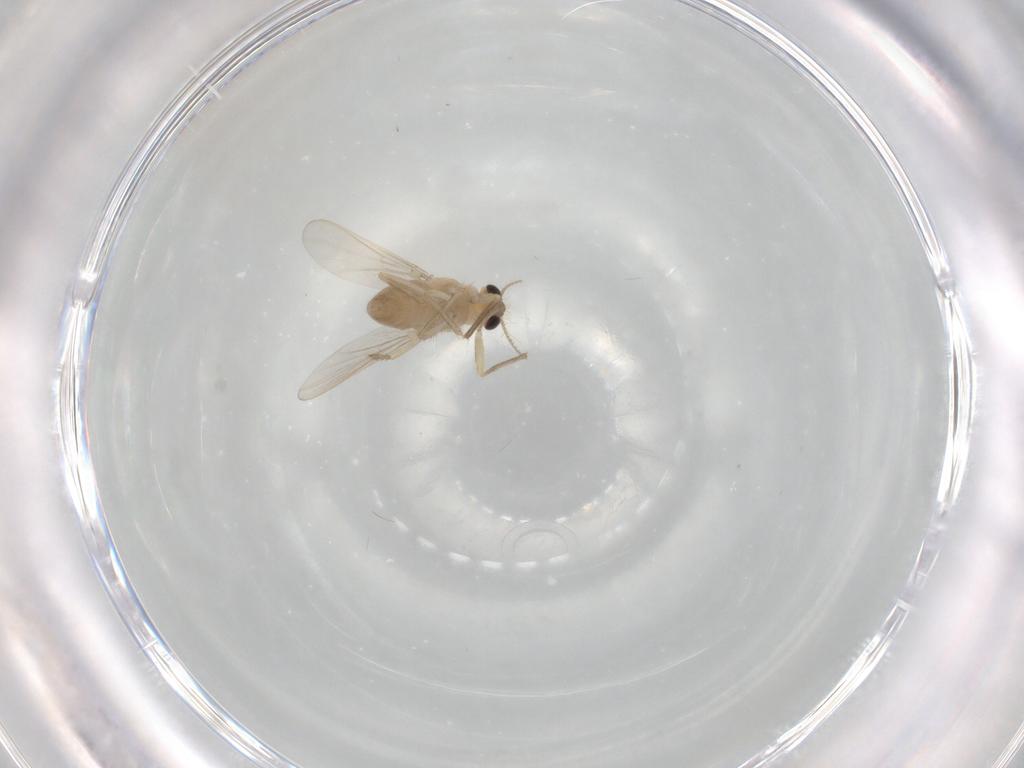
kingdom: Animalia
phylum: Arthropoda
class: Insecta
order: Diptera
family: Chironomidae
